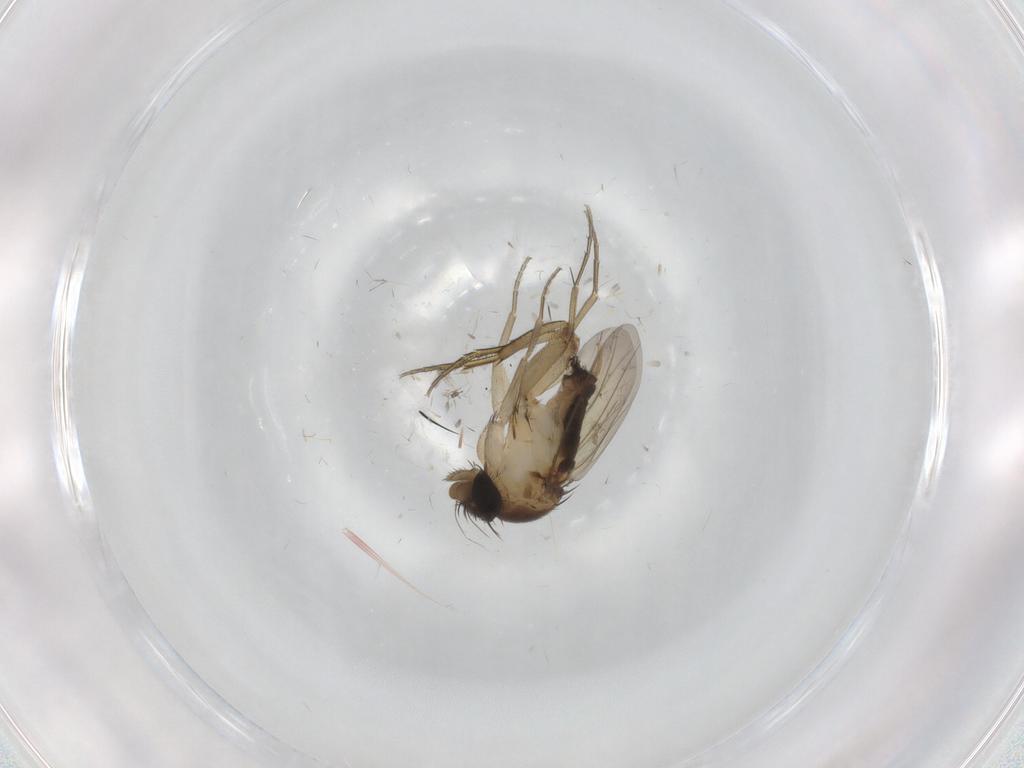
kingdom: Animalia
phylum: Arthropoda
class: Insecta
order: Diptera
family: Phoridae
